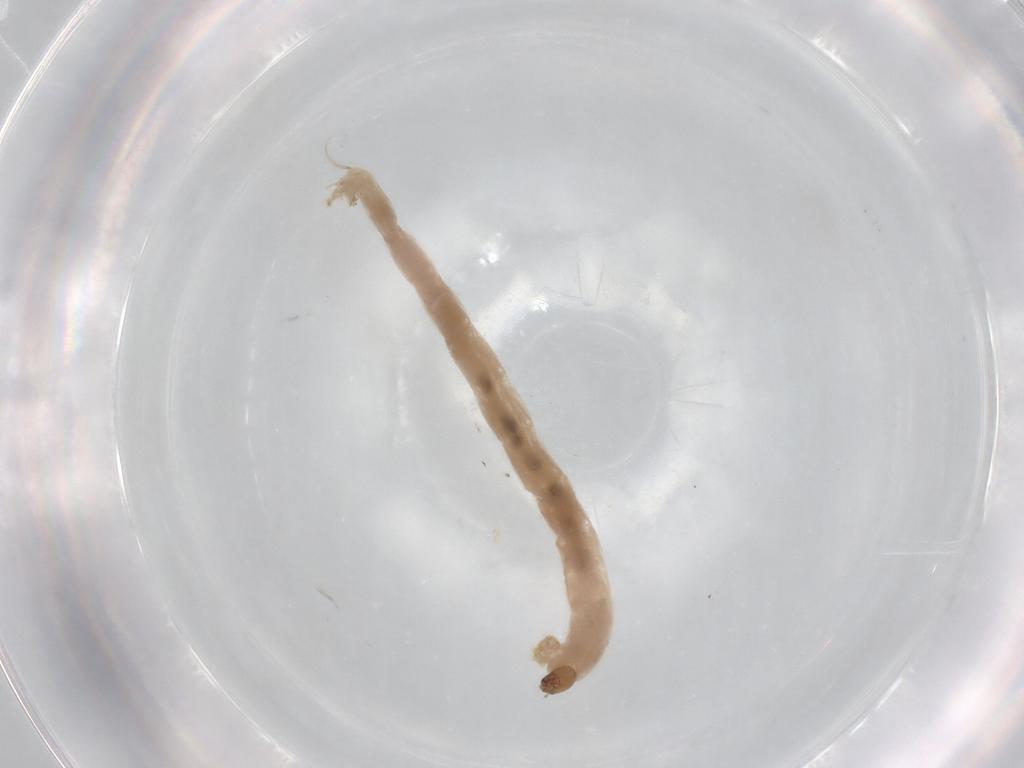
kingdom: Animalia
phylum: Arthropoda
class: Insecta
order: Diptera
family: Chironomidae
